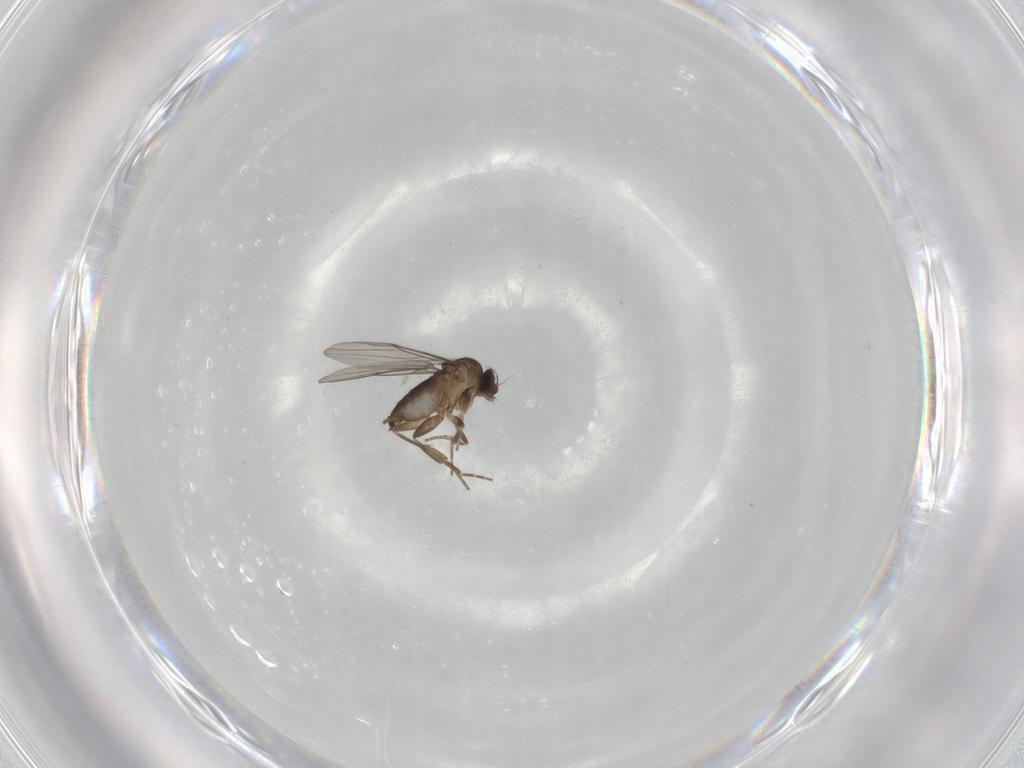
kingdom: Animalia
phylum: Arthropoda
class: Insecta
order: Diptera
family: Phoridae
